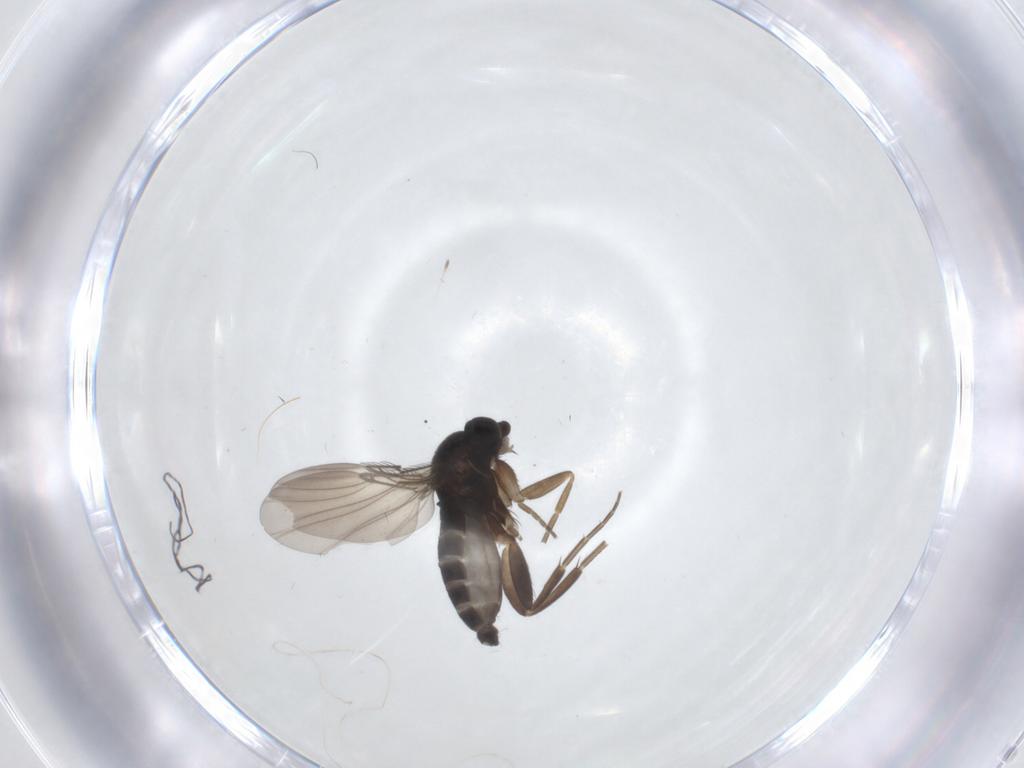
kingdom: Animalia
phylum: Arthropoda
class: Insecta
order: Diptera
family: Phoridae
